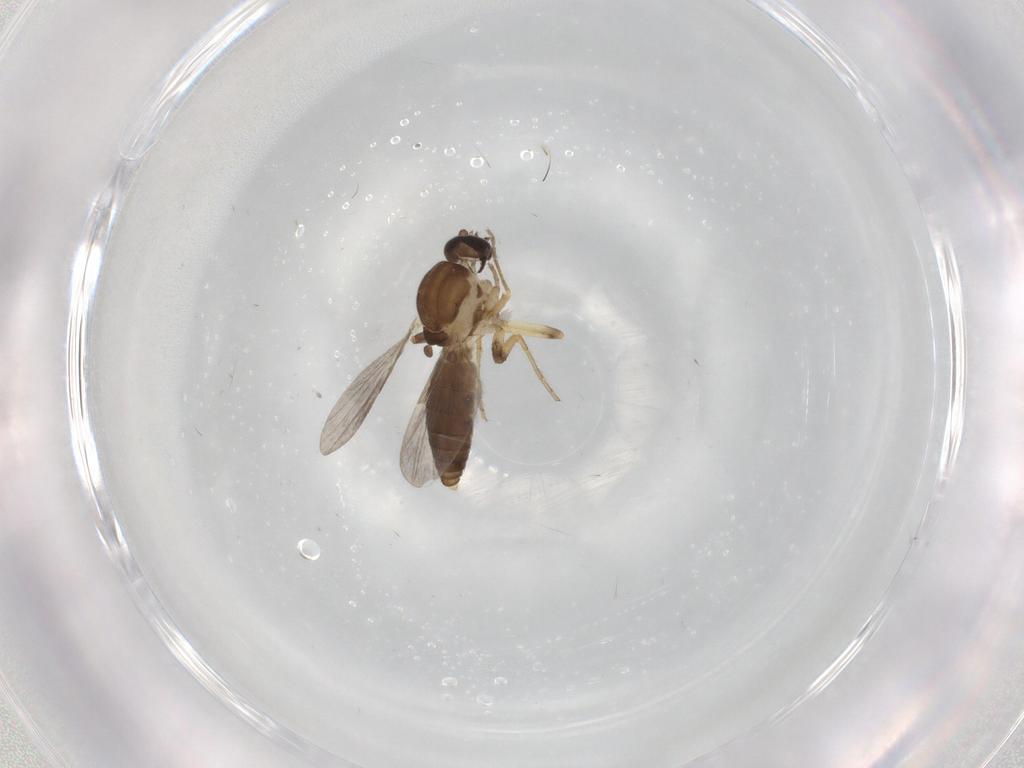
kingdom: Animalia
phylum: Arthropoda
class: Insecta
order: Diptera
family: Ceratopogonidae
